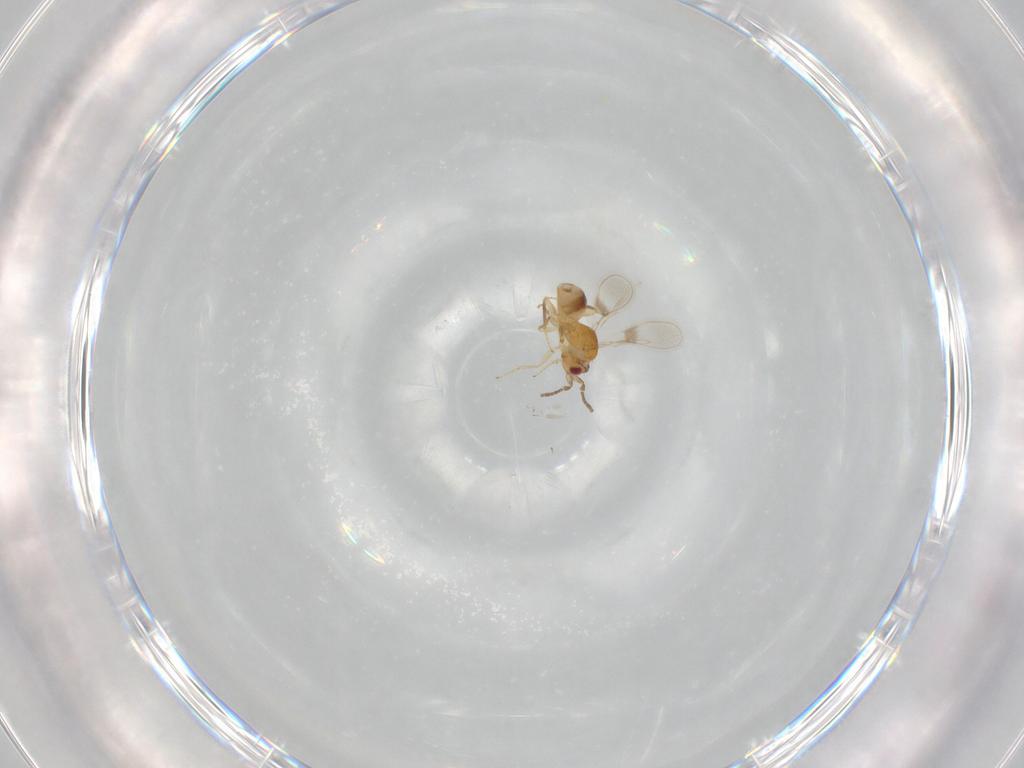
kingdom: Animalia
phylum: Arthropoda
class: Insecta
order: Hymenoptera
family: Mymaridae
